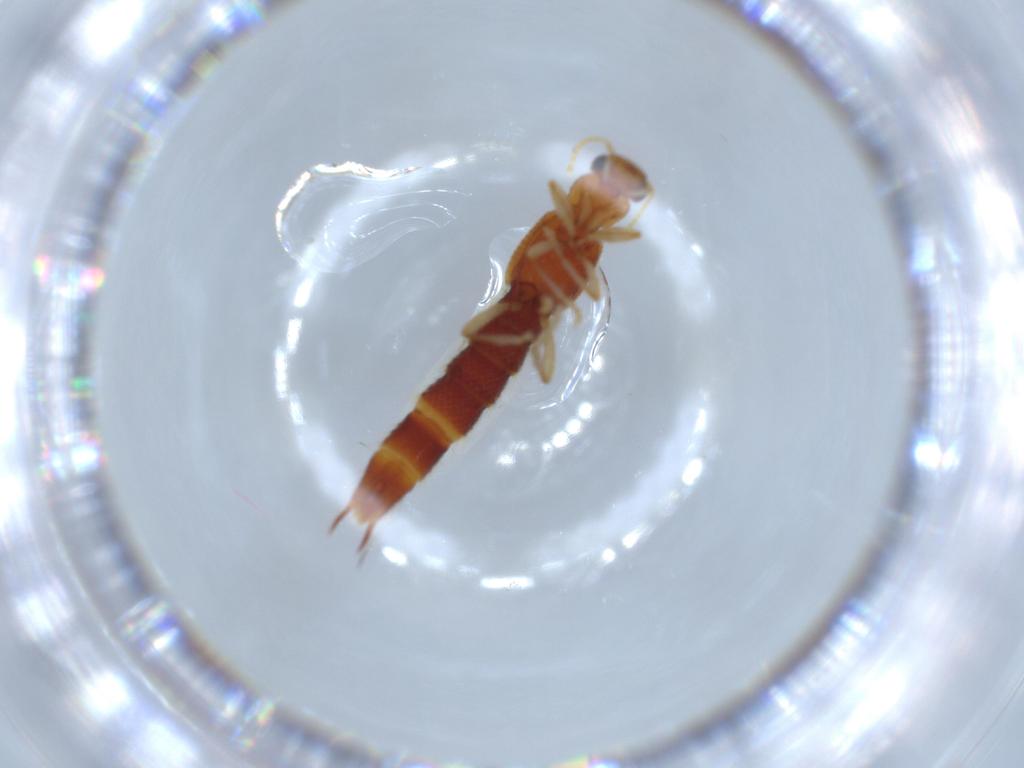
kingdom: Animalia
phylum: Arthropoda
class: Insecta
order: Coleoptera
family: Staphylinidae
